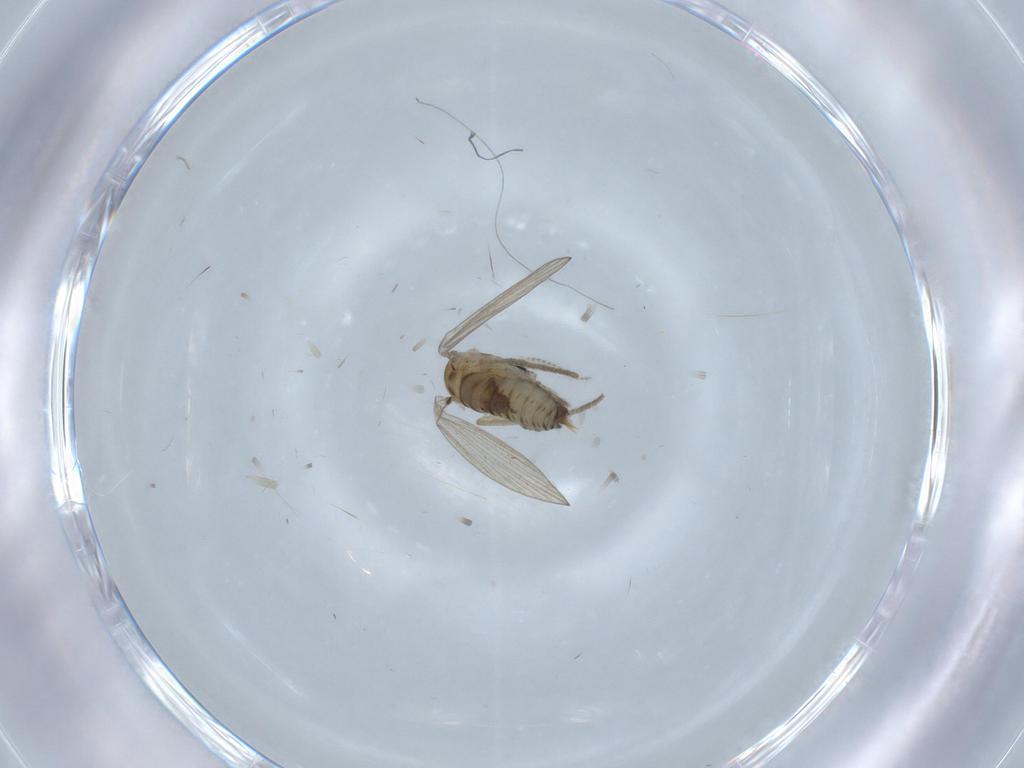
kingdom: Animalia
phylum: Arthropoda
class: Insecta
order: Diptera
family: Psychodidae
